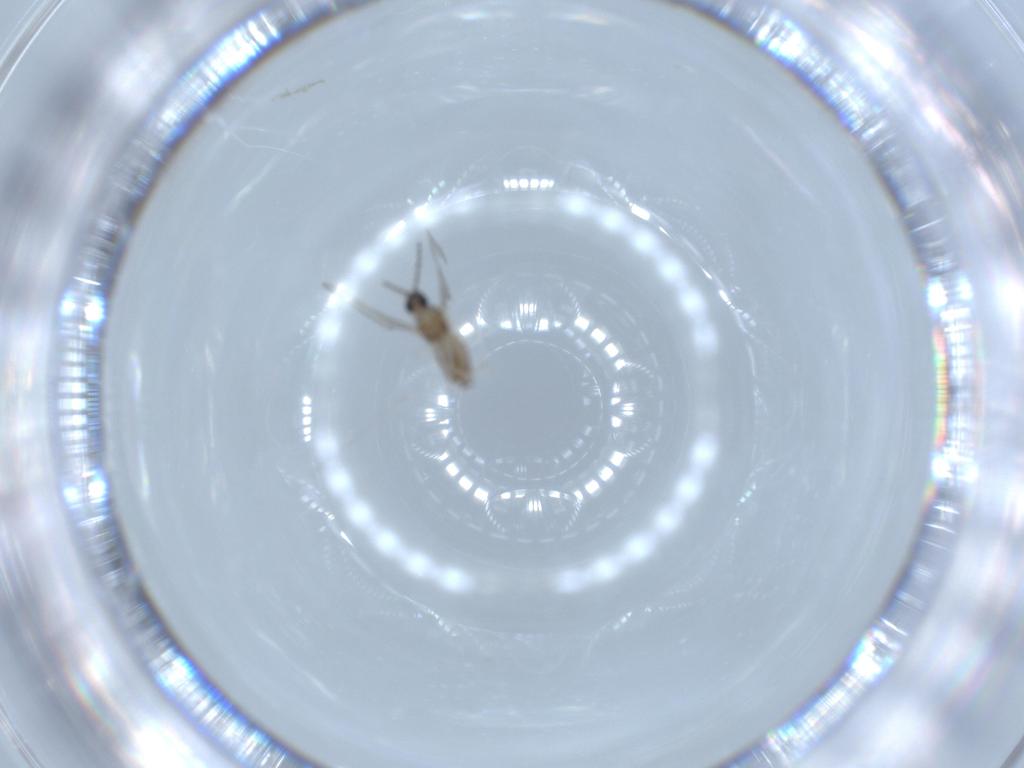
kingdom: Animalia
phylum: Arthropoda
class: Insecta
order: Diptera
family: Cecidomyiidae
